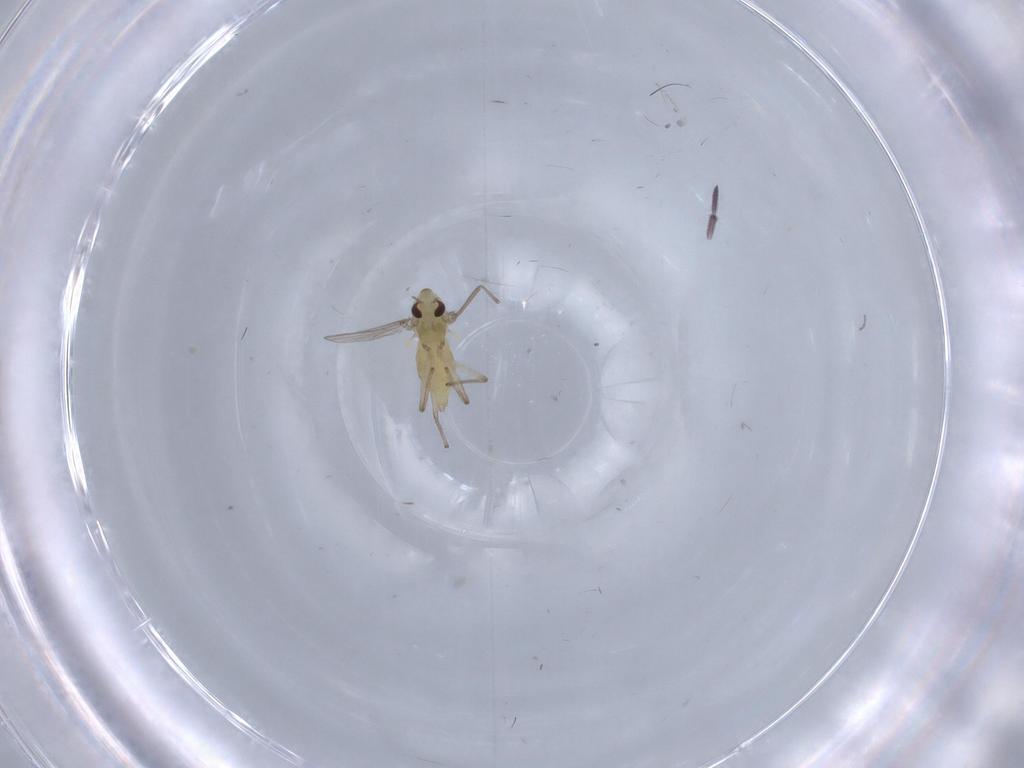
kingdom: Animalia
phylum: Arthropoda
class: Insecta
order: Diptera
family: Chironomidae
